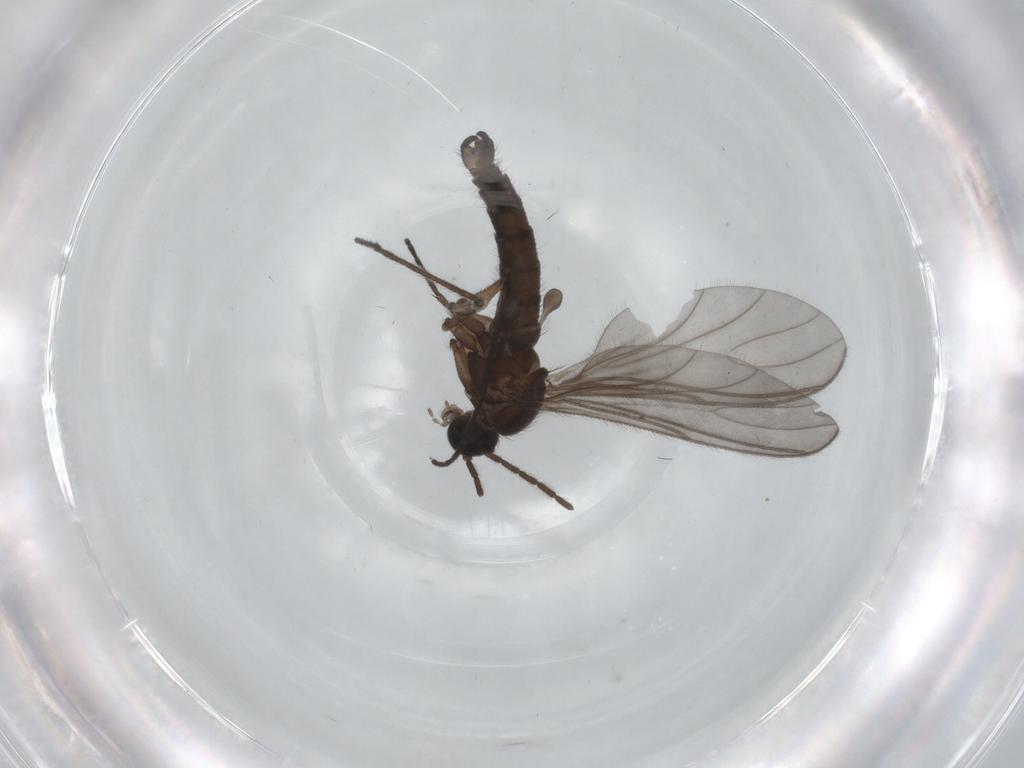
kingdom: Animalia
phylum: Arthropoda
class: Insecta
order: Diptera
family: Sciaridae
